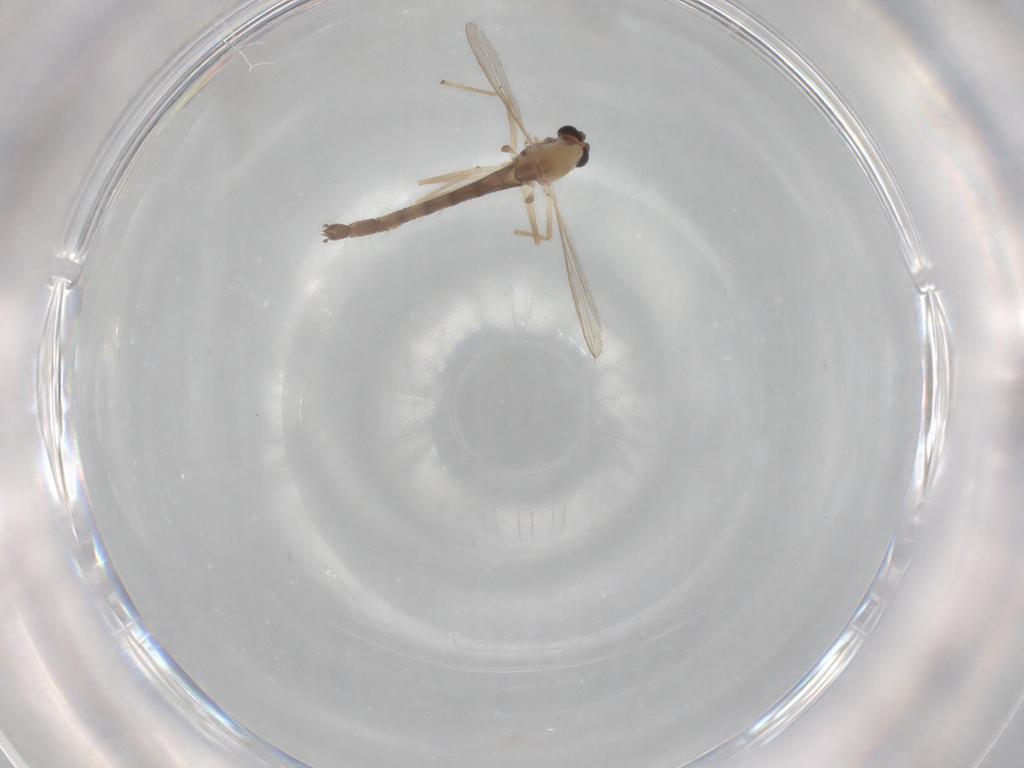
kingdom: Animalia
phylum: Arthropoda
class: Insecta
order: Diptera
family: Chironomidae
